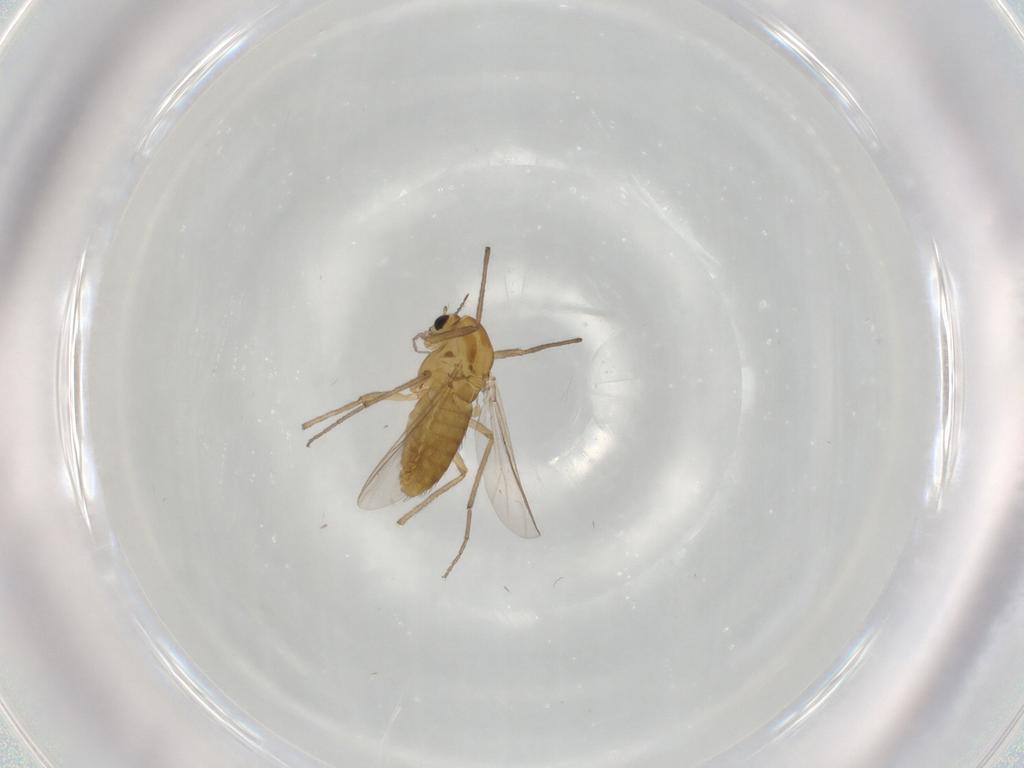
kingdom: Animalia
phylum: Arthropoda
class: Insecta
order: Diptera
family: Chironomidae
